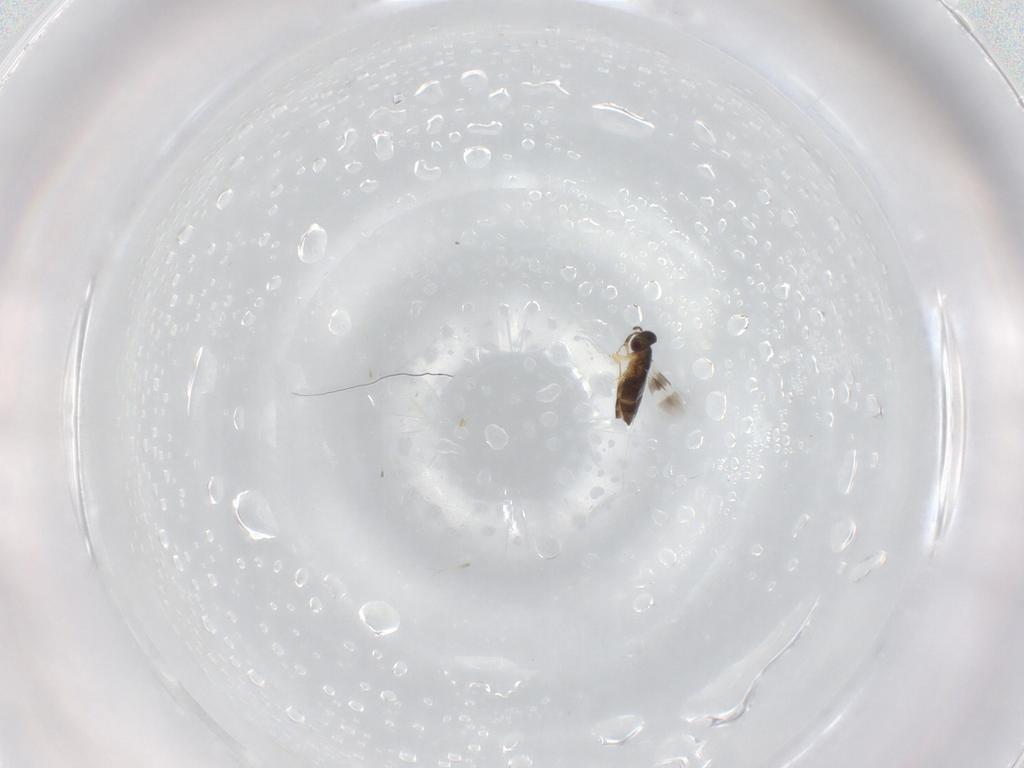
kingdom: Animalia
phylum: Arthropoda
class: Insecta
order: Hymenoptera
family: Signiphoridae
